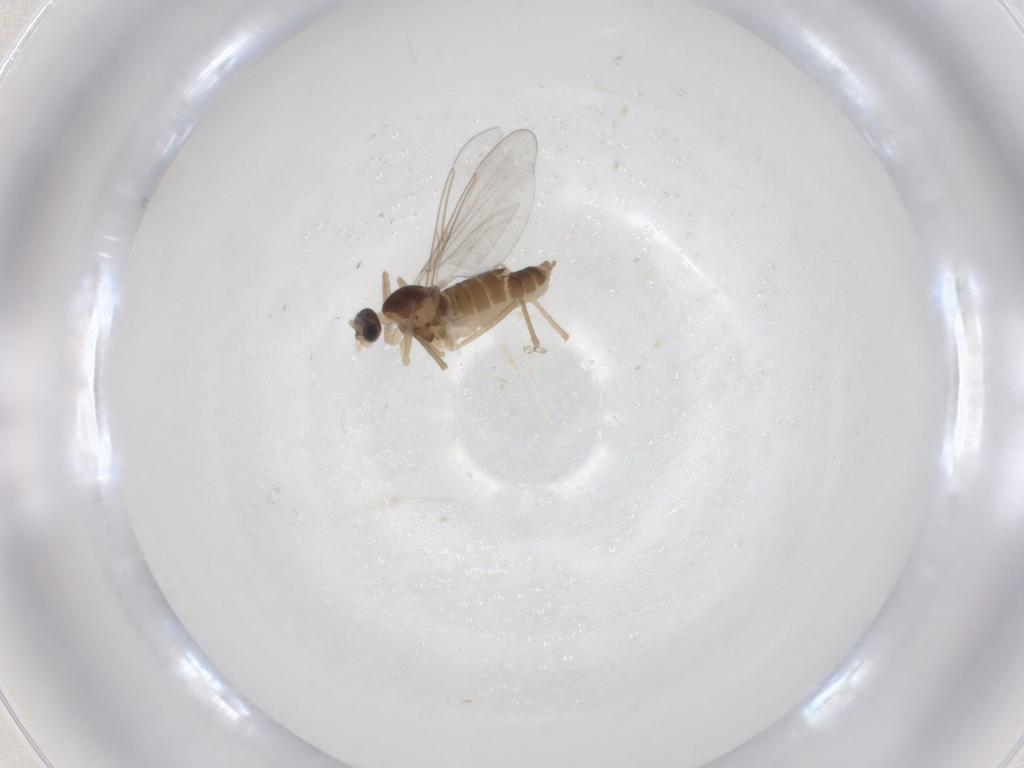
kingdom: Animalia
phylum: Arthropoda
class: Insecta
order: Diptera
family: Cecidomyiidae
